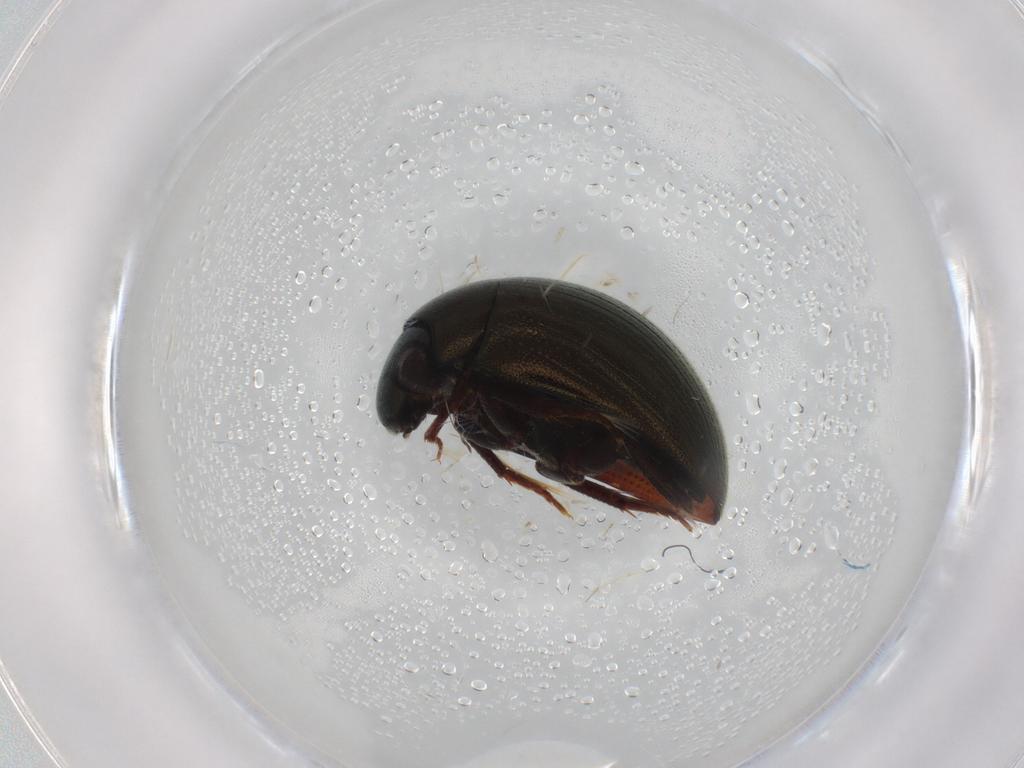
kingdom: Animalia
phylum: Arthropoda
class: Insecta
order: Coleoptera
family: Hydrophilidae
